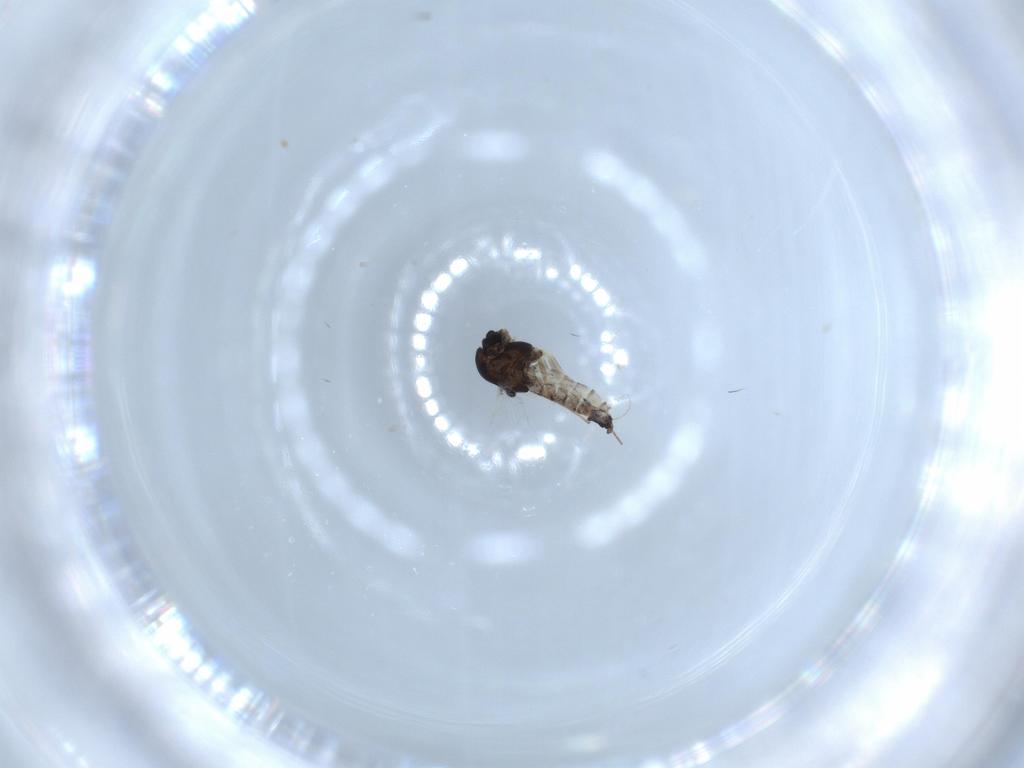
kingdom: Animalia
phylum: Arthropoda
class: Insecta
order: Diptera
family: Chironomidae
